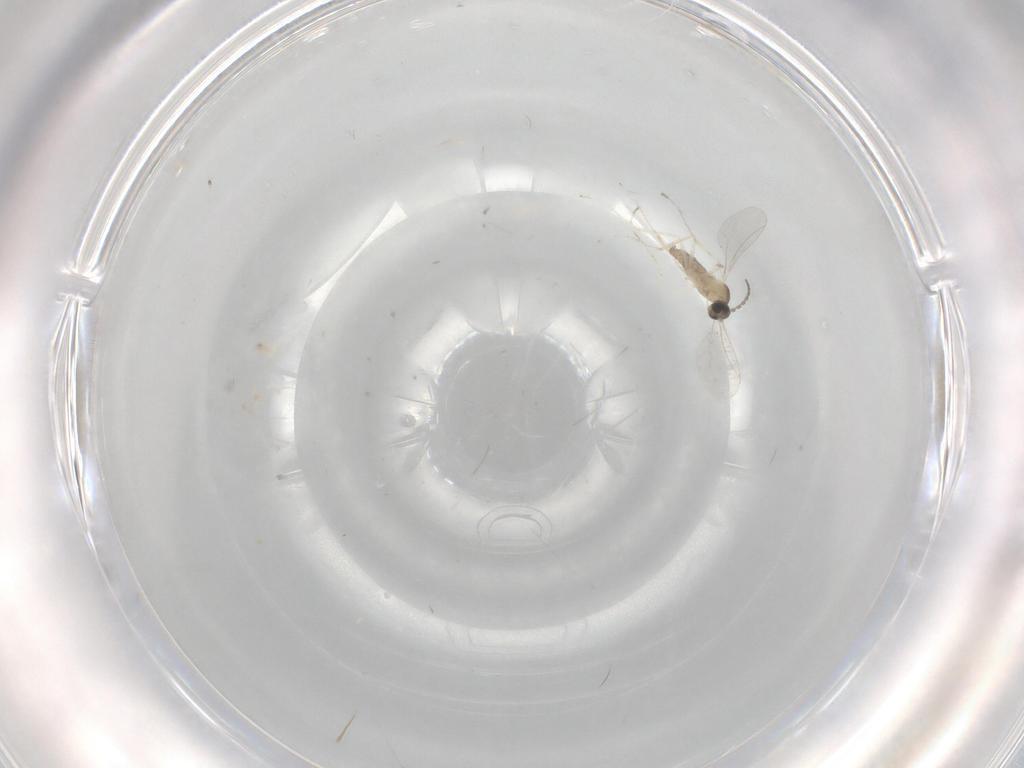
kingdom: Animalia
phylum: Arthropoda
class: Insecta
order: Diptera
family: Cecidomyiidae
